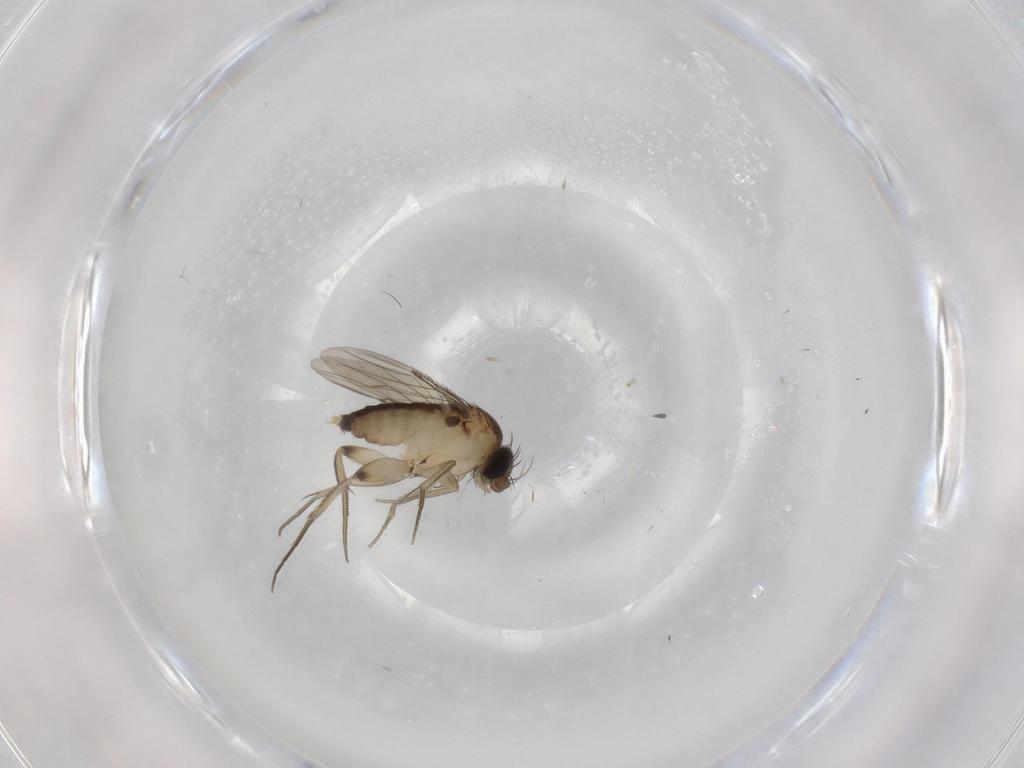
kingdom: Animalia
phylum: Arthropoda
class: Insecta
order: Diptera
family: Phoridae
